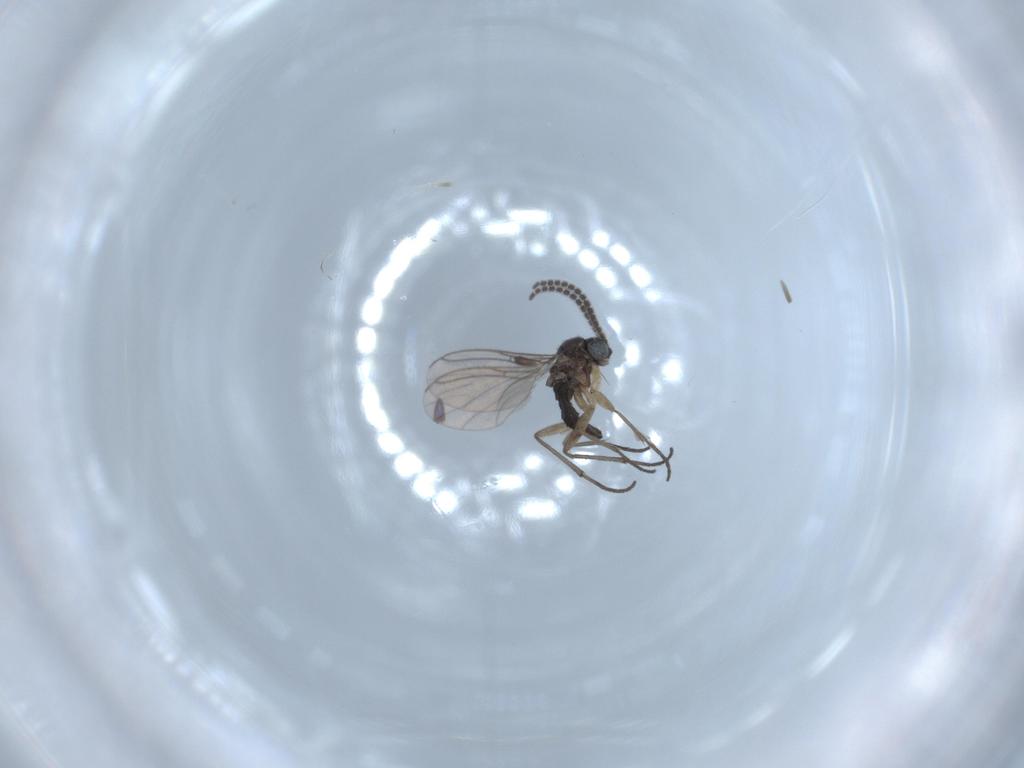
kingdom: Animalia
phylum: Arthropoda
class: Insecta
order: Diptera
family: Sciaridae
